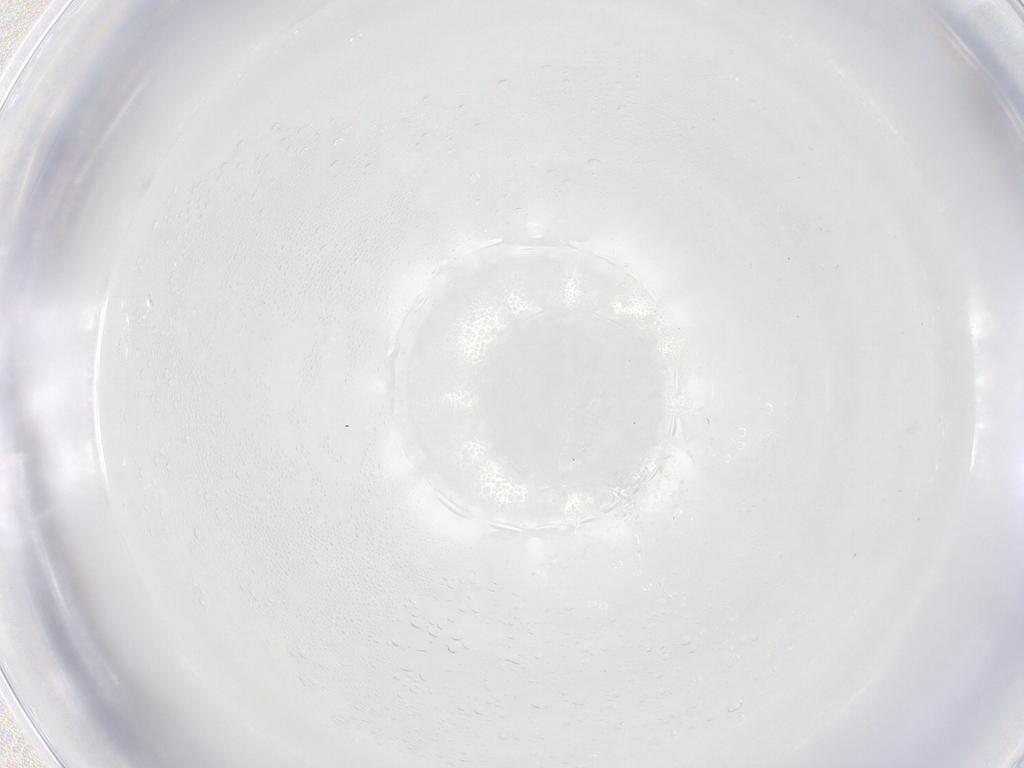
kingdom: Animalia
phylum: Arthropoda
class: Insecta
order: Diptera
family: Phoridae
